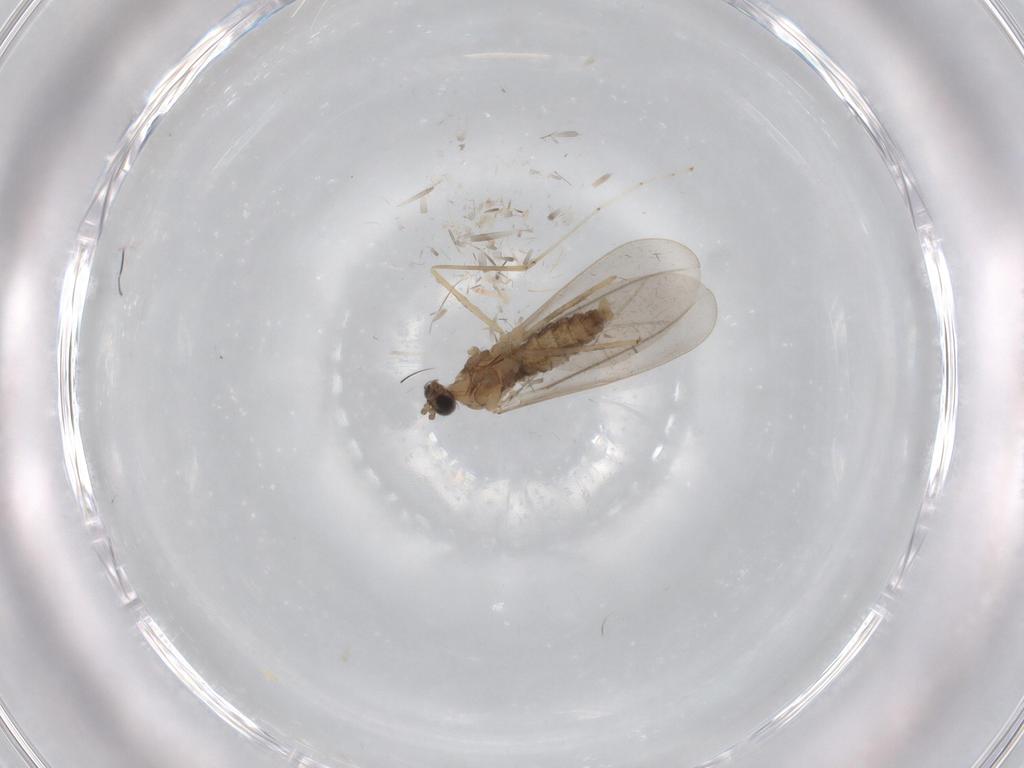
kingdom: Animalia
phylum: Arthropoda
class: Insecta
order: Diptera
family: Cecidomyiidae
